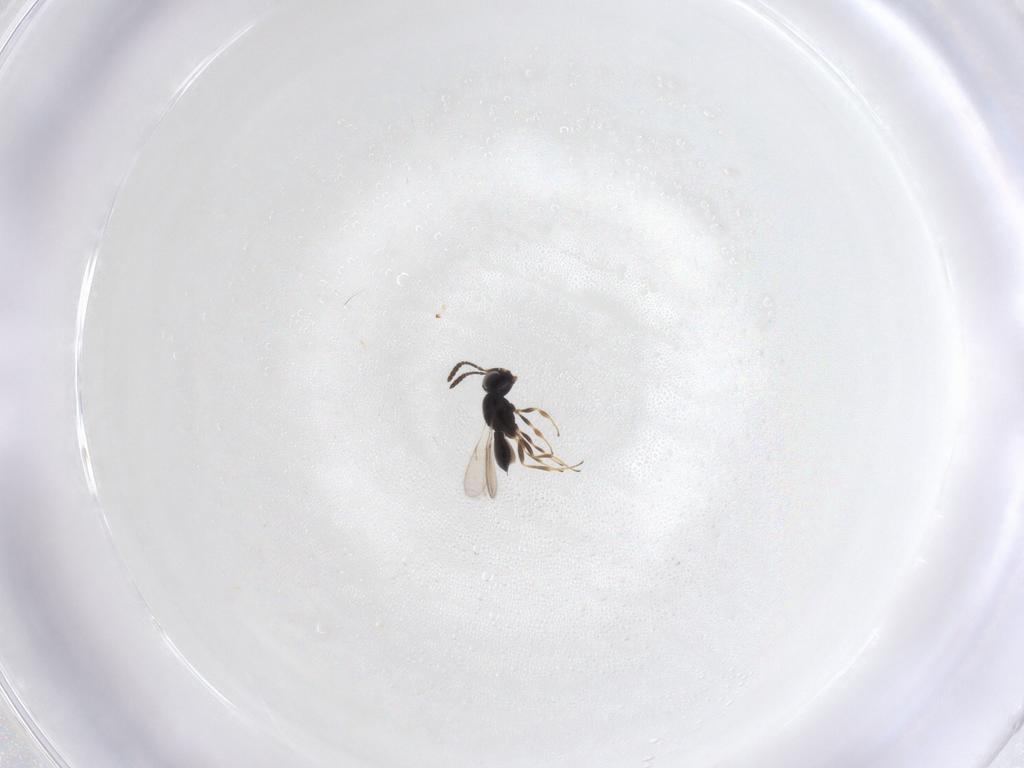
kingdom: Animalia
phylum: Arthropoda
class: Insecta
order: Hymenoptera
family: Scelionidae
